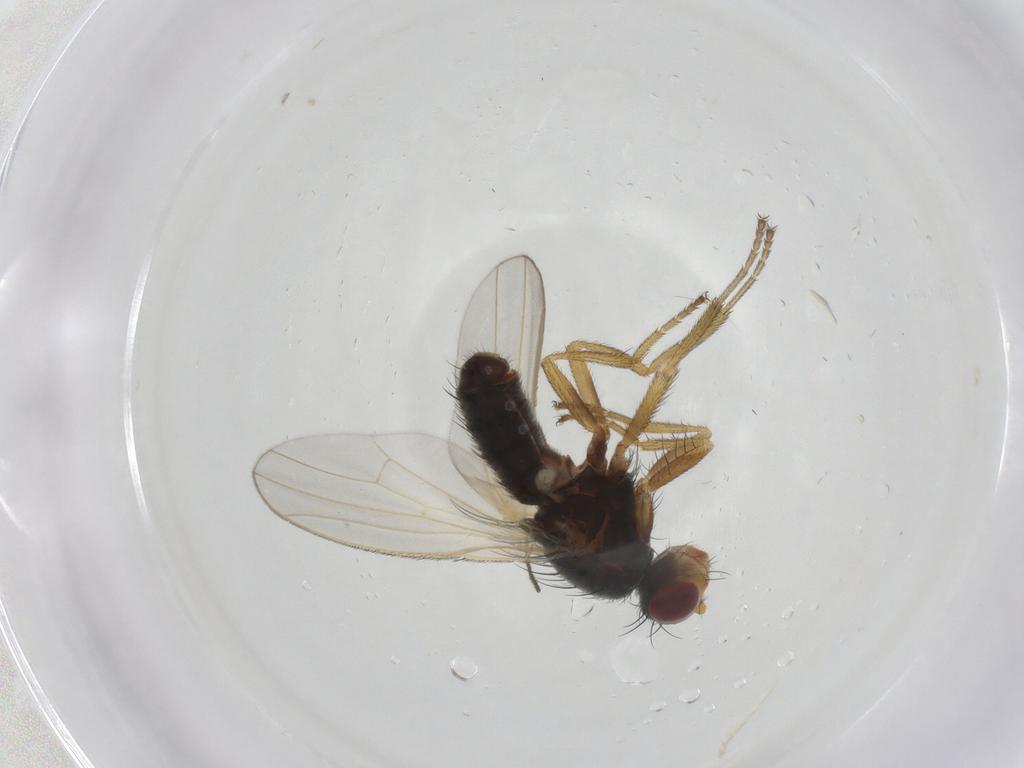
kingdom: Animalia
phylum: Arthropoda
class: Insecta
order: Diptera
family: Heleomyzidae
